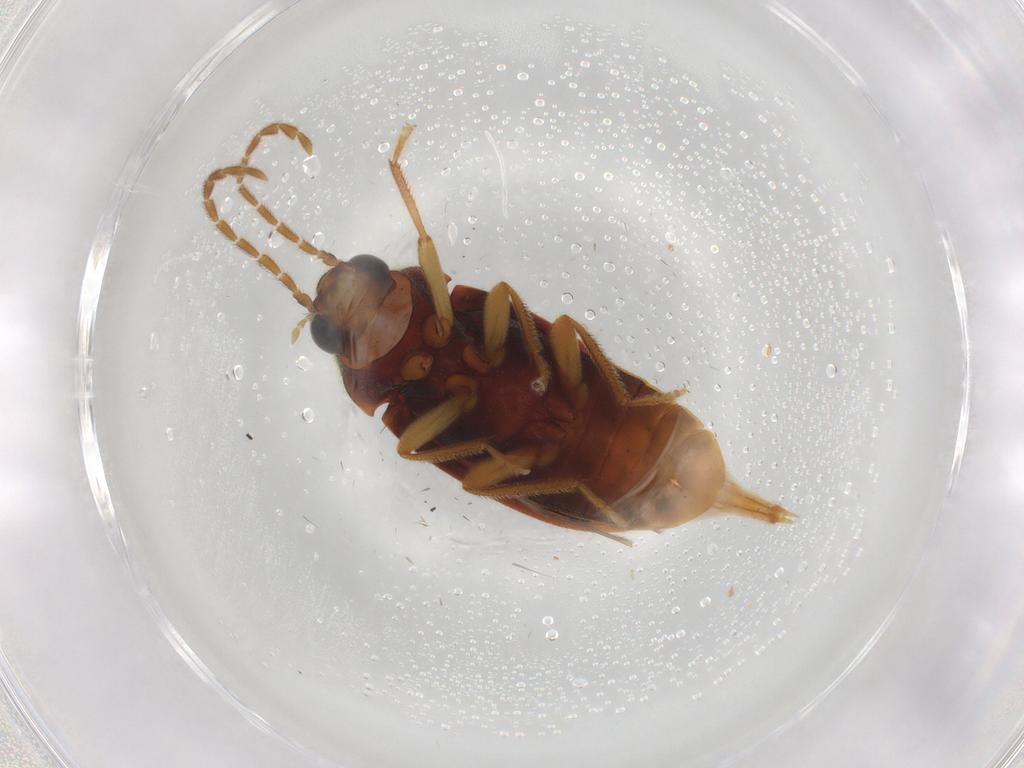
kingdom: Animalia
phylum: Arthropoda
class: Insecta
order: Coleoptera
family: Ptilodactylidae
